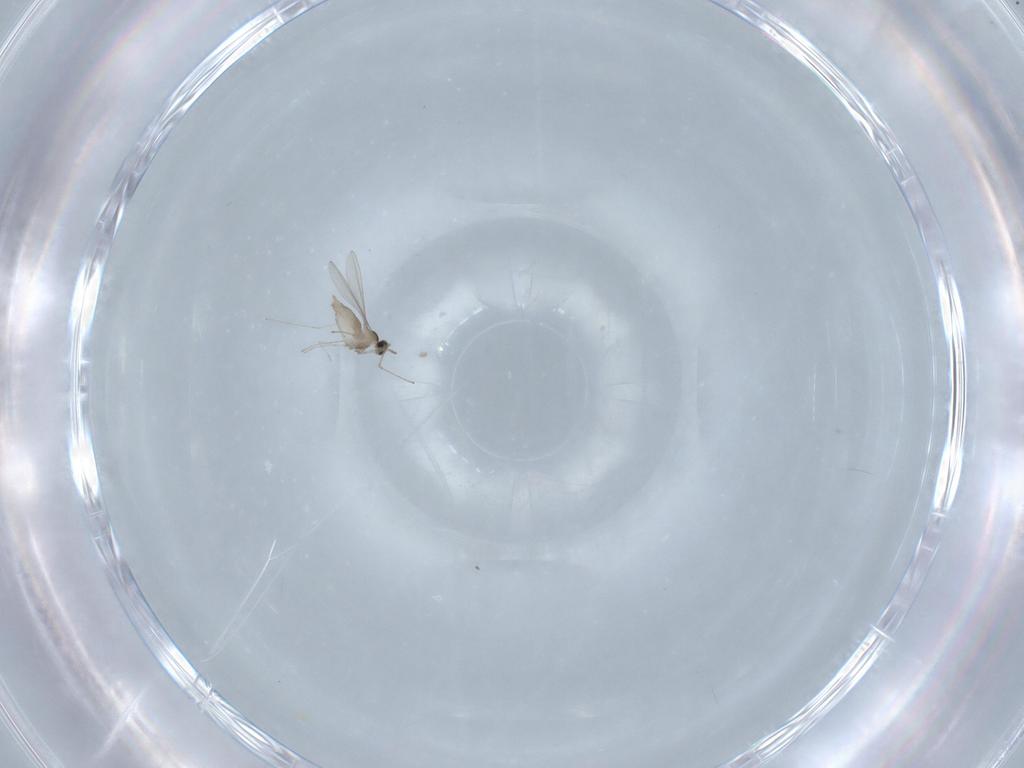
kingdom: Animalia
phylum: Arthropoda
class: Insecta
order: Diptera
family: Cecidomyiidae
